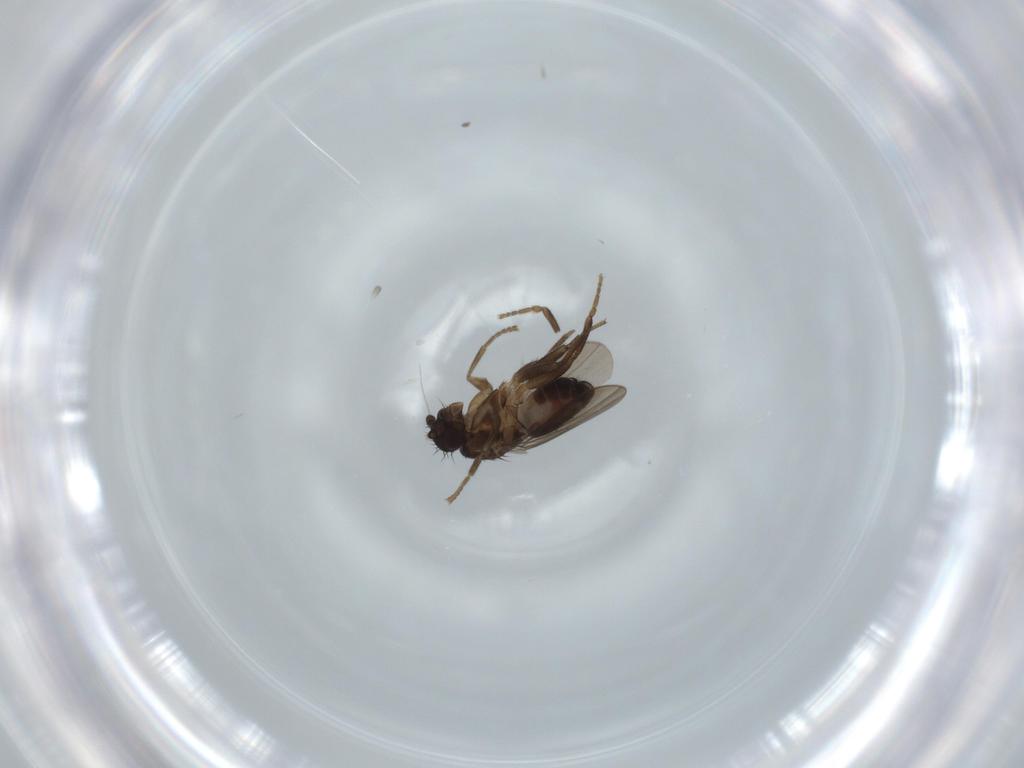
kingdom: Animalia
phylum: Arthropoda
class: Insecta
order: Diptera
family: Sphaeroceridae
